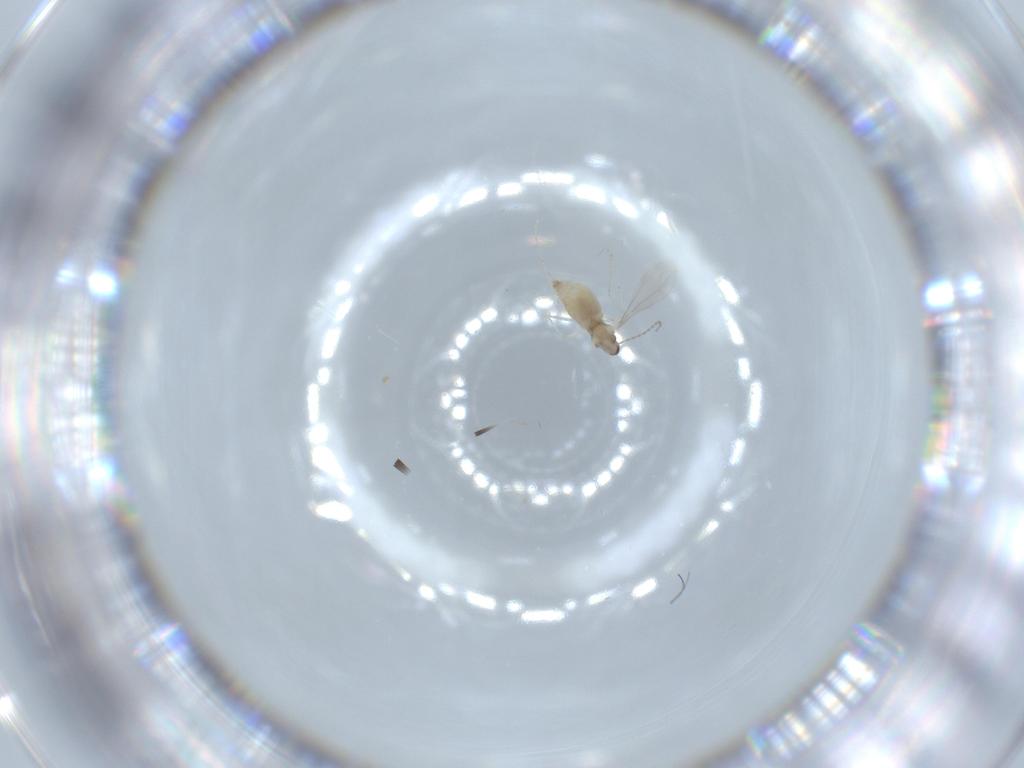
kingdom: Animalia
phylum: Arthropoda
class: Insecta
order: Diptera
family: Cecidomyiidae
